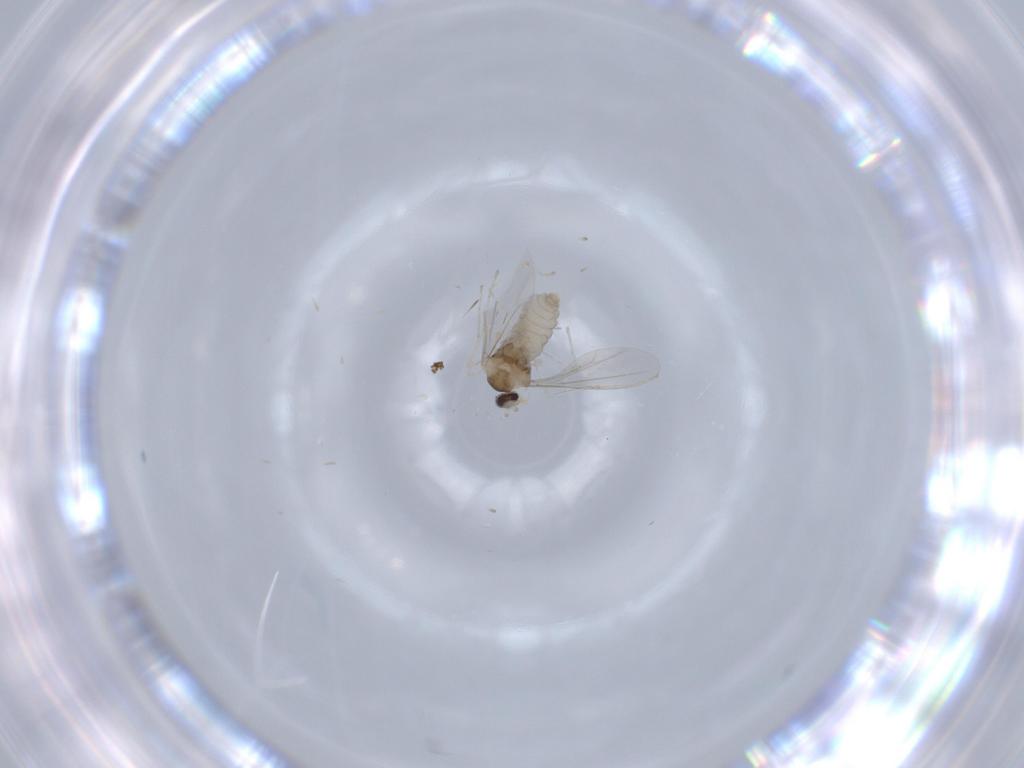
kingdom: Animalia
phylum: Arthropoda
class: Insecta
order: Diptera
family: Cecidomyiidae
